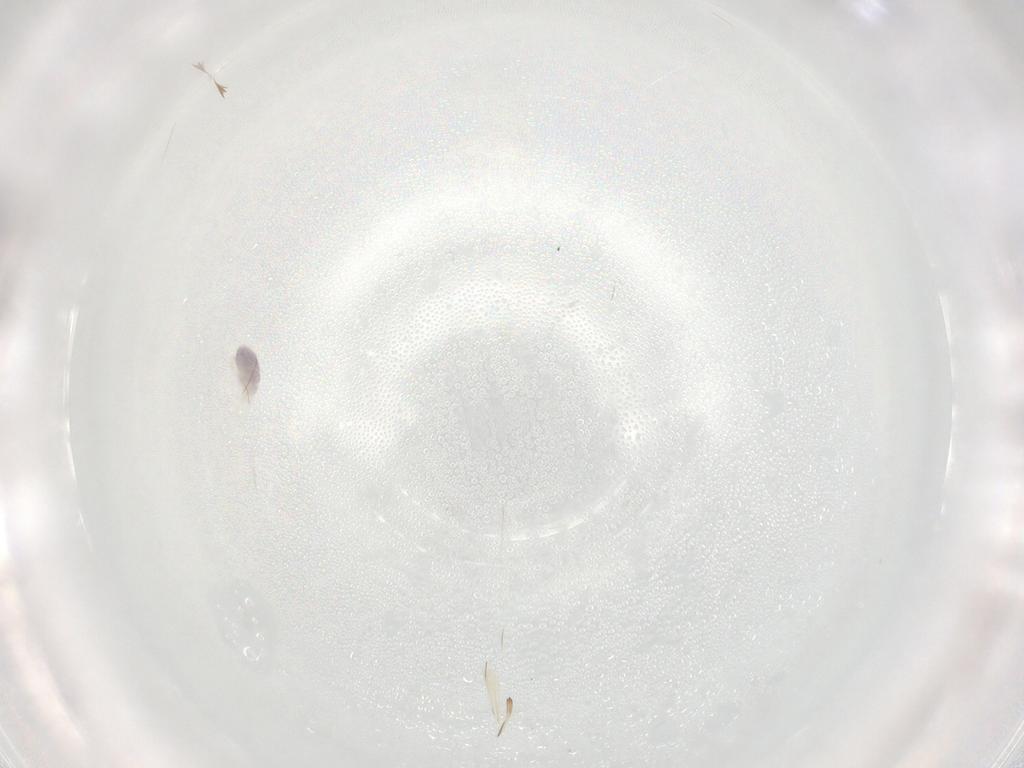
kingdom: Animalia
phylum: Arthropoda
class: Arachnida
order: Trombidiformes
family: Eupodidae
